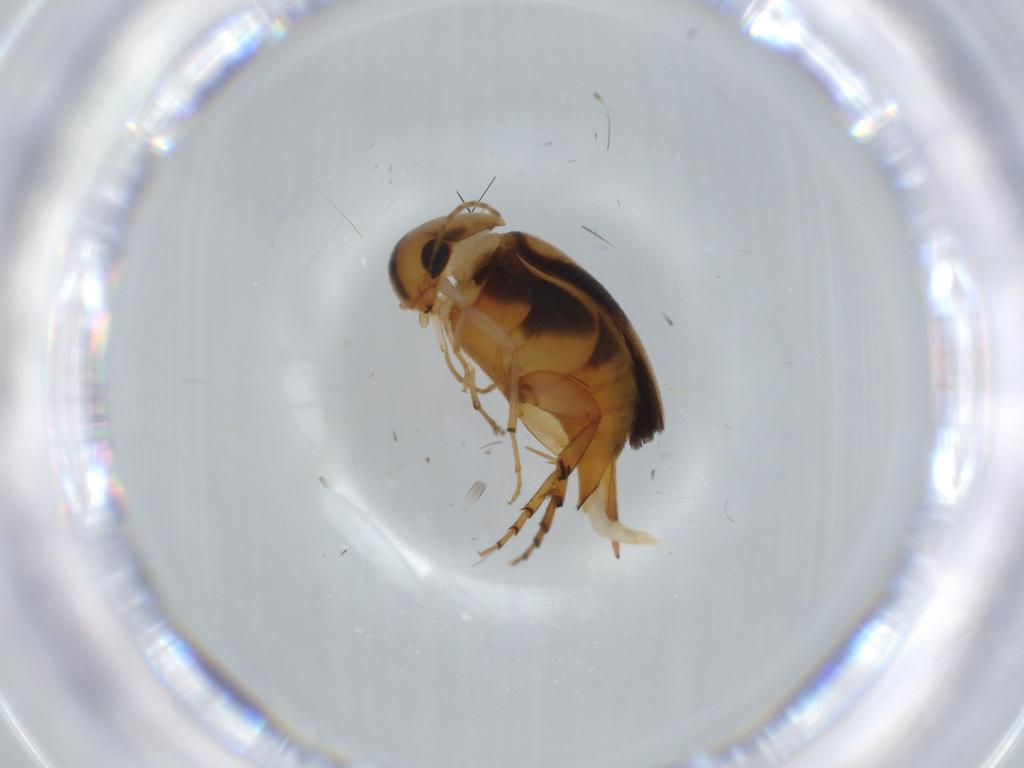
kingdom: Animalia
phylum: Arthropoda
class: Insecta
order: Coleoptera
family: Mordellidae
